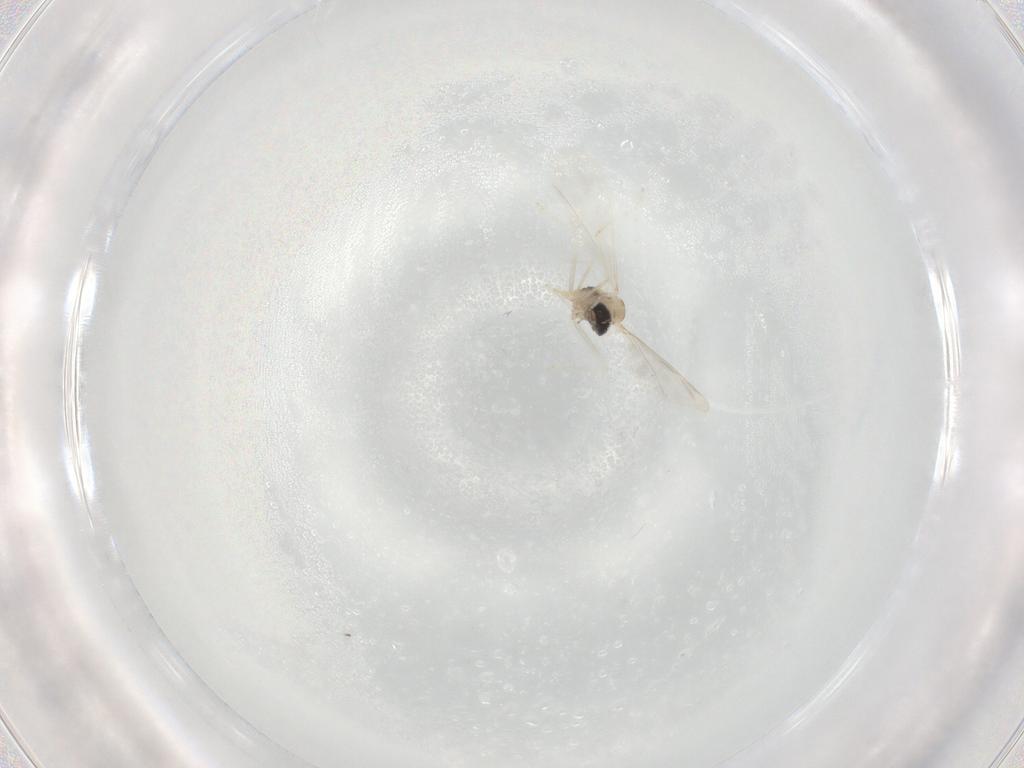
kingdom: Animalia
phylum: Arthropoda
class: Insecta
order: Diptera
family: Cecidomyiidae
